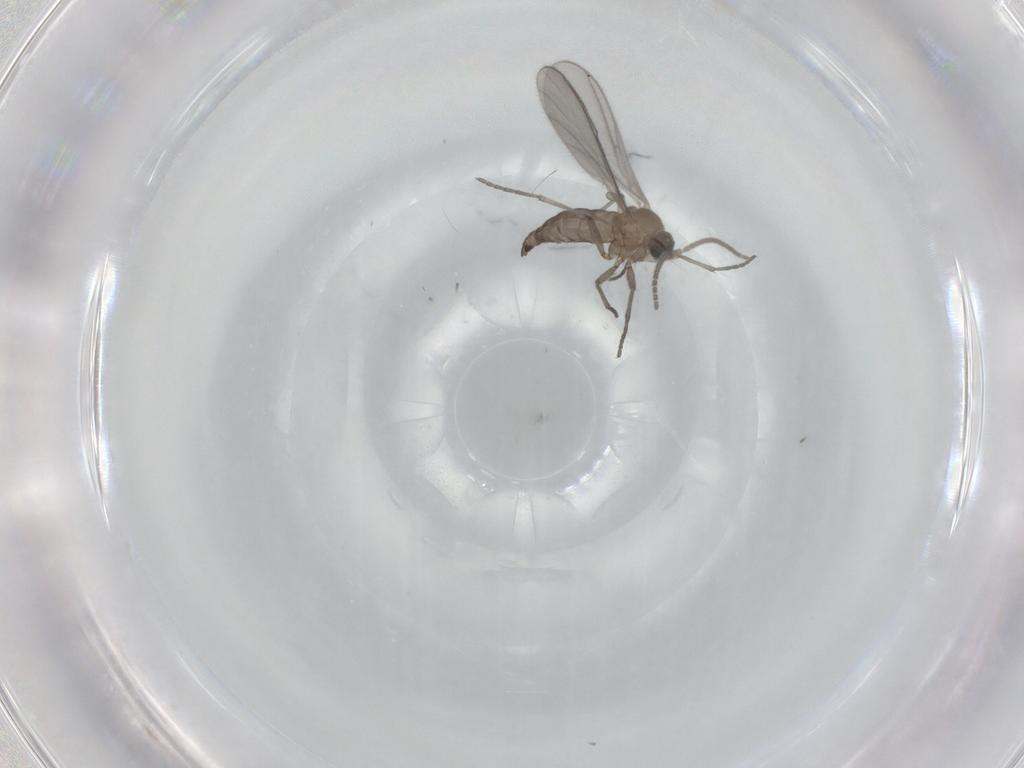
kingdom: Animalia
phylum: Arthropoda
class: Insecta
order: Diptera
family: Sciaridae
